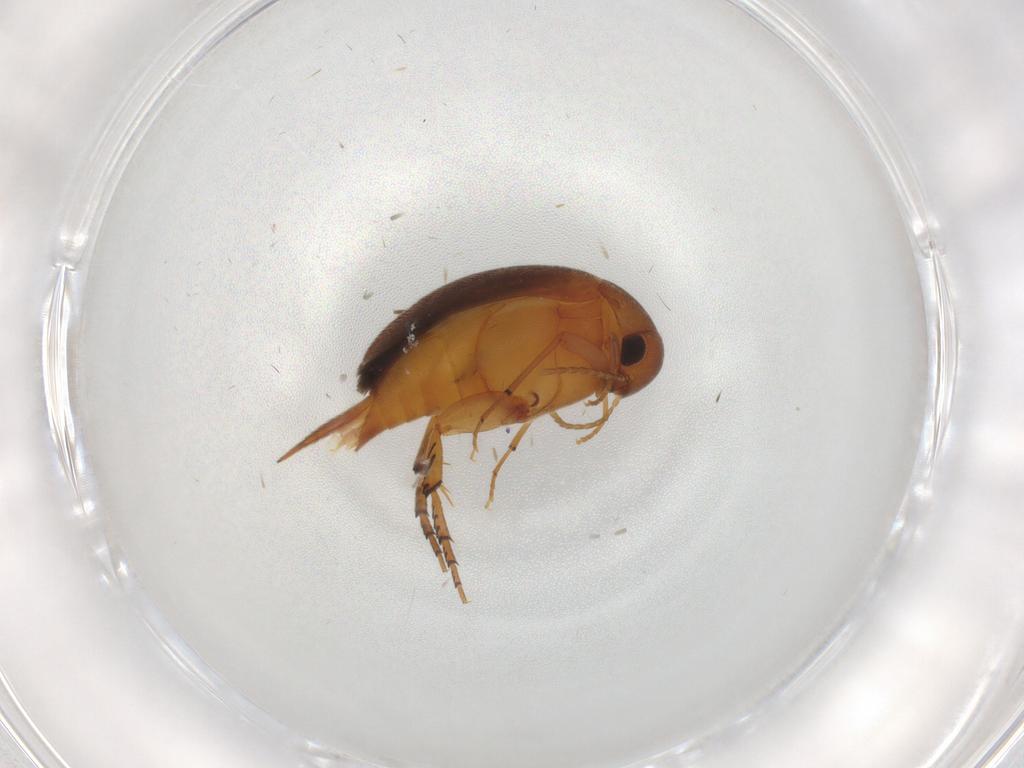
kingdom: Animalia
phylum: Arthropoda
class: Insecta
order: Coleoptera
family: Mordellidae
